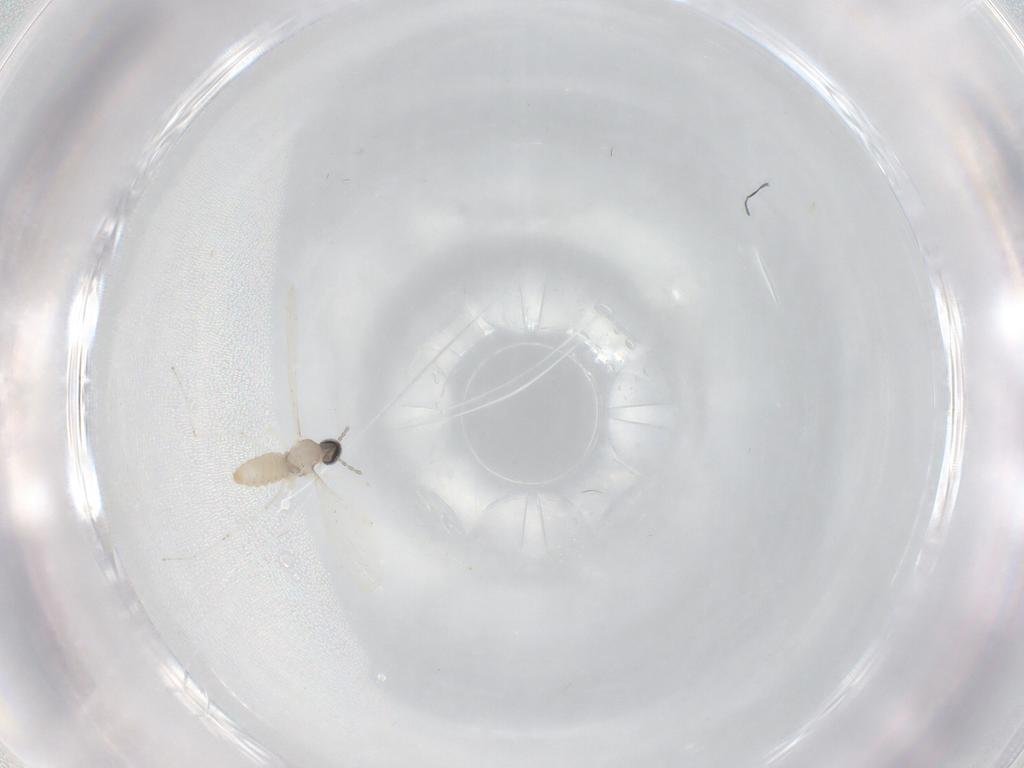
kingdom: Animalia
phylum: Arthropoda
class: Insecta
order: Diptera
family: Cecidomyiidae
